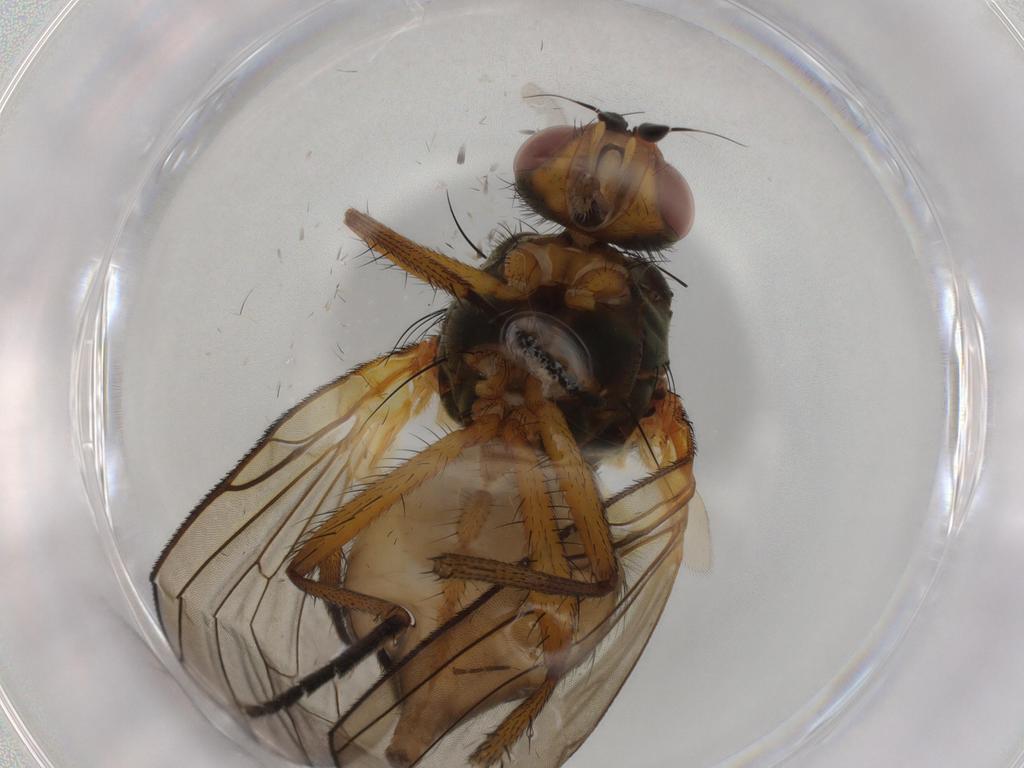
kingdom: Animalia
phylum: Arthropoda
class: Insecta
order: Diptera
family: Anthomyiidae
